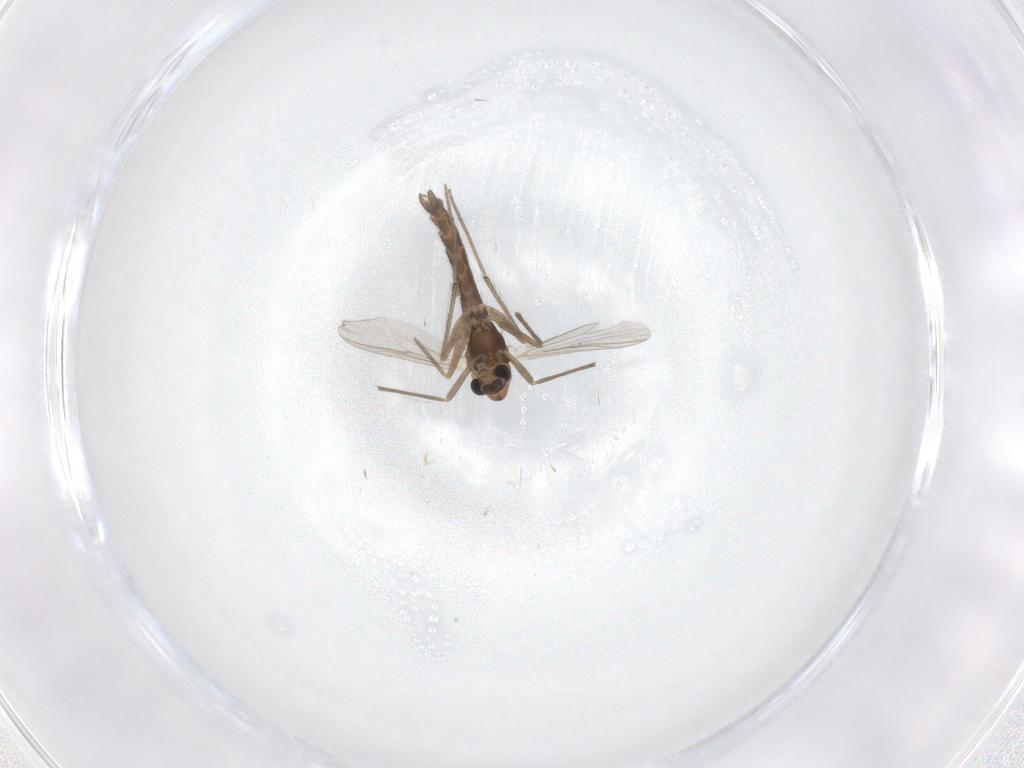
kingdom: Animalia
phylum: Arthropoda
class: Insecta
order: Diptera
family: Chironomidae
